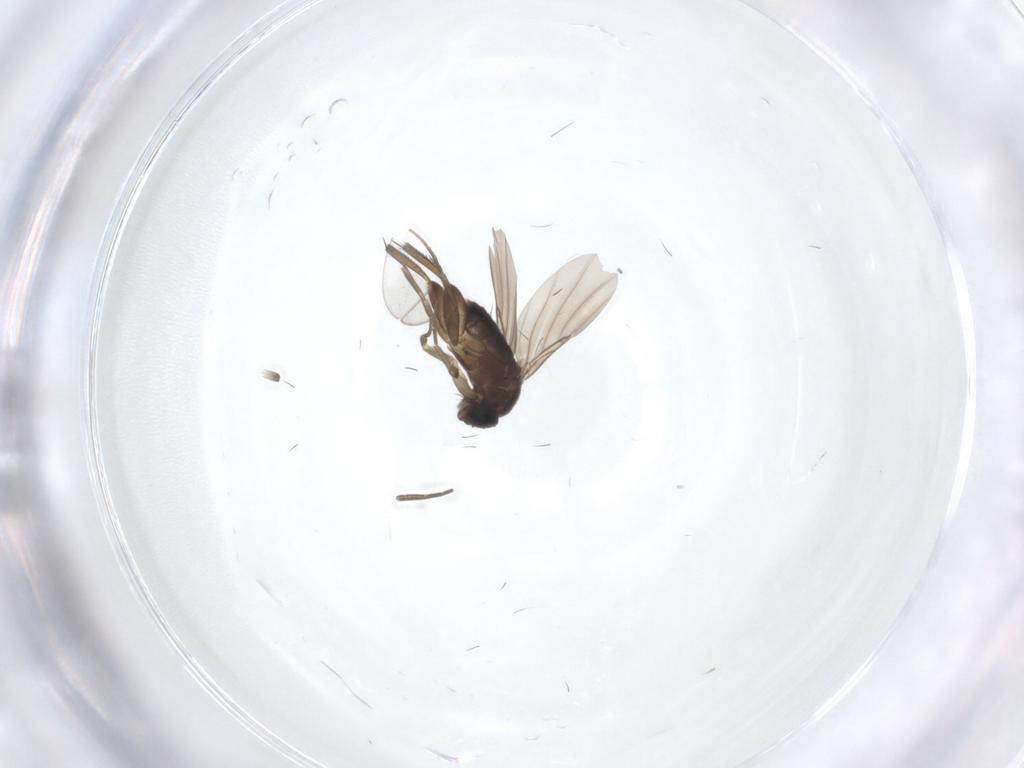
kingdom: Animalia
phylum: Arthropoda
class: Insecta
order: Diptera
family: Phoridae
